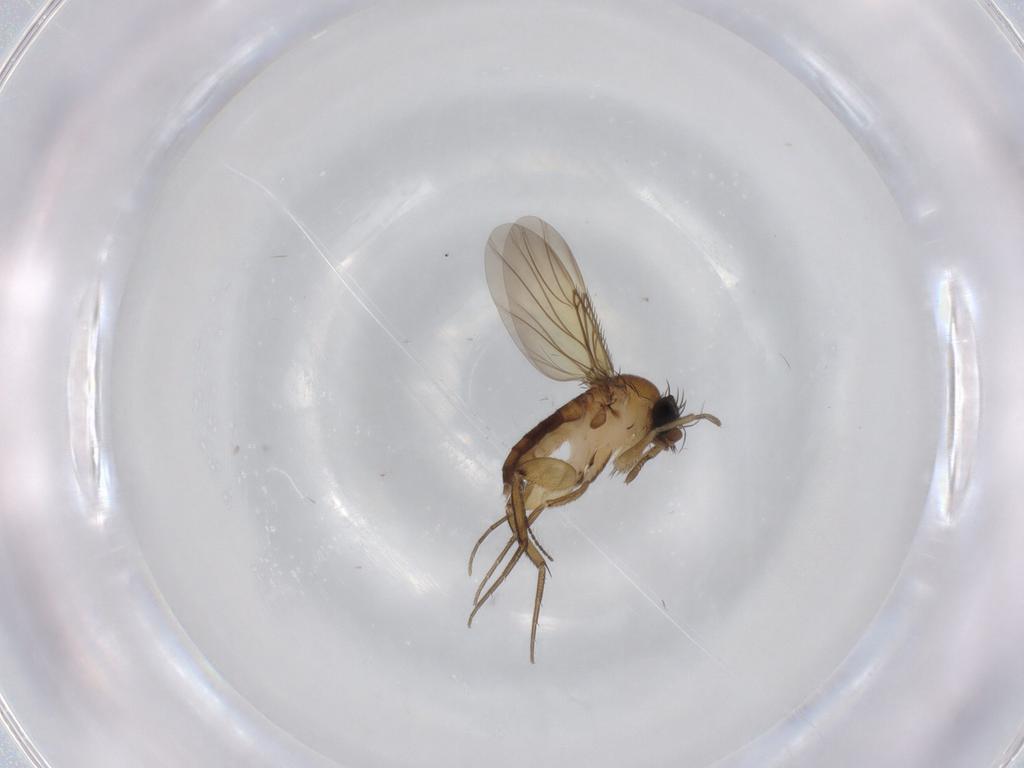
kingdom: Animalia
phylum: Arthropoda
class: Insecta
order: Diptera
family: Phoridae
